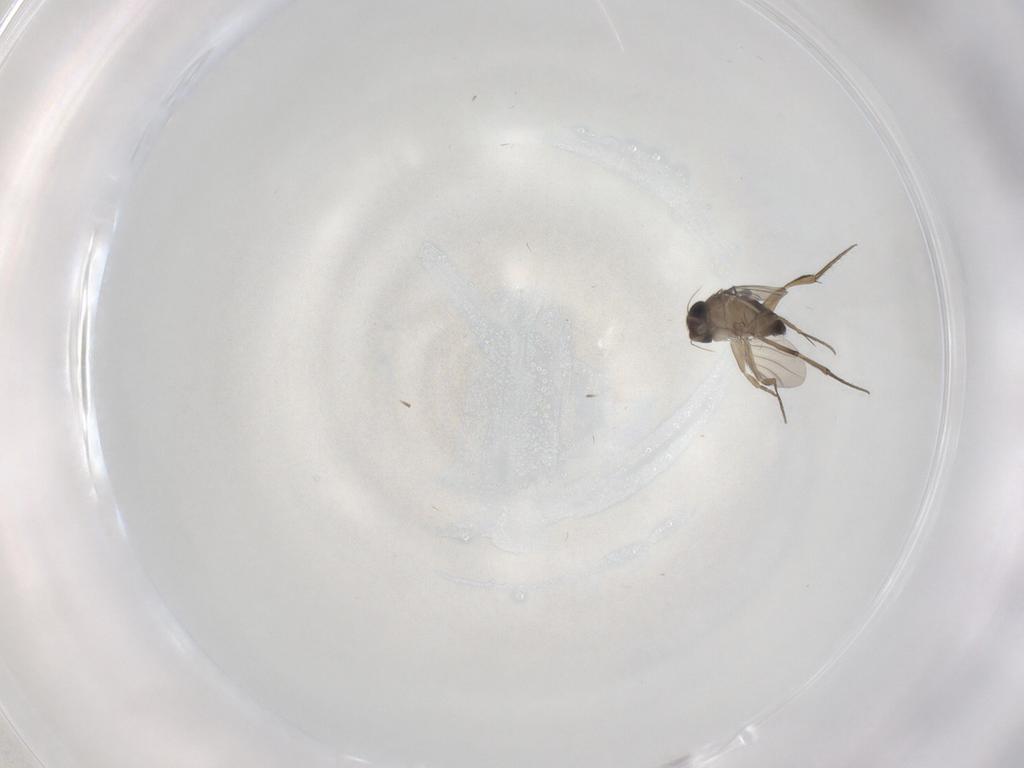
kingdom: Animalia
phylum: Arthropoda
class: Insecta
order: Diptera
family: Phoridae
